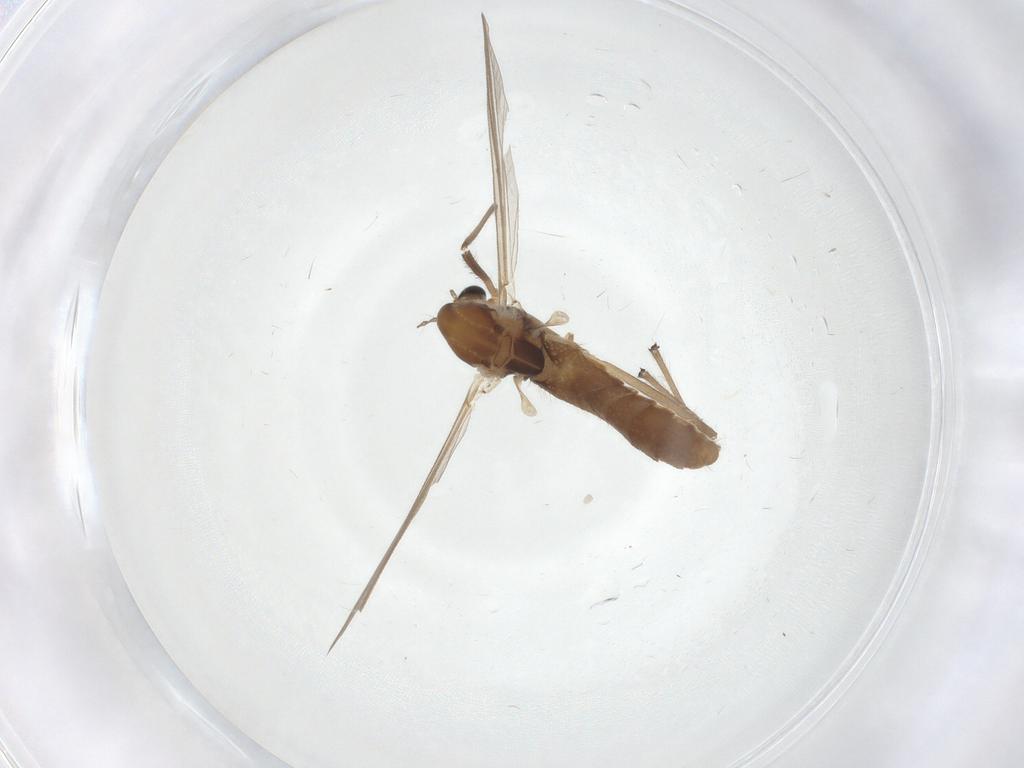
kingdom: Animalia
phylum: Arthropoda
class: Insecta
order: Diptera
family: Chironomidae
